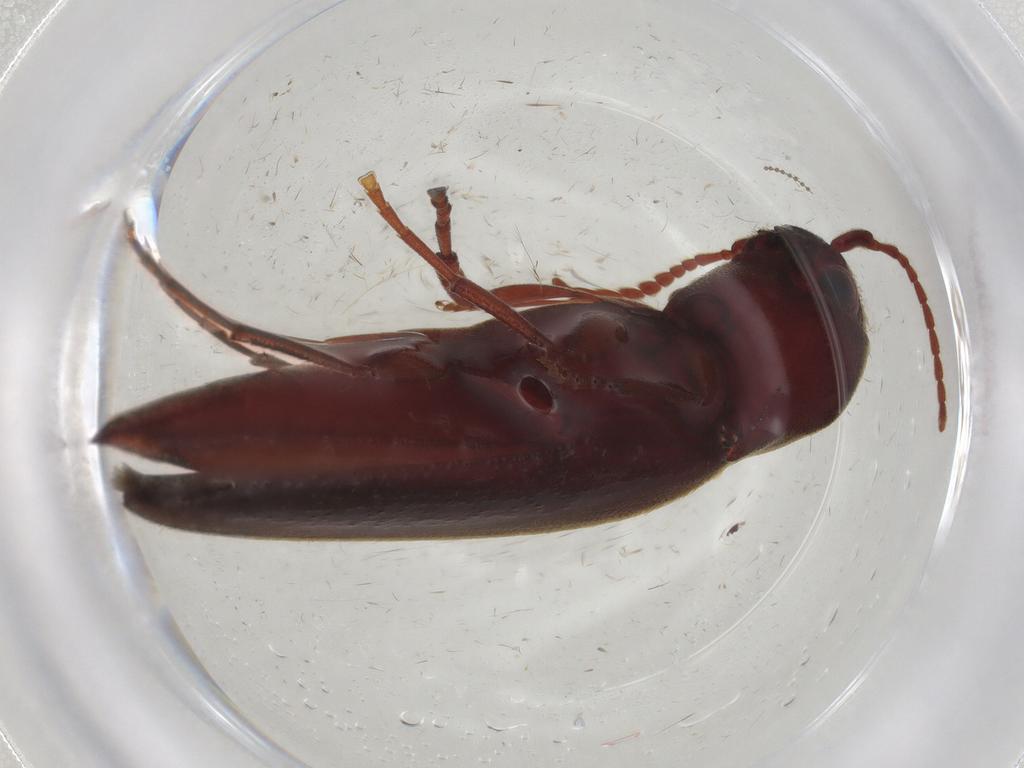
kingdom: Animalia
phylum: Arthropoda
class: Insecta
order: Coleoptera
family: Eucnemidae
